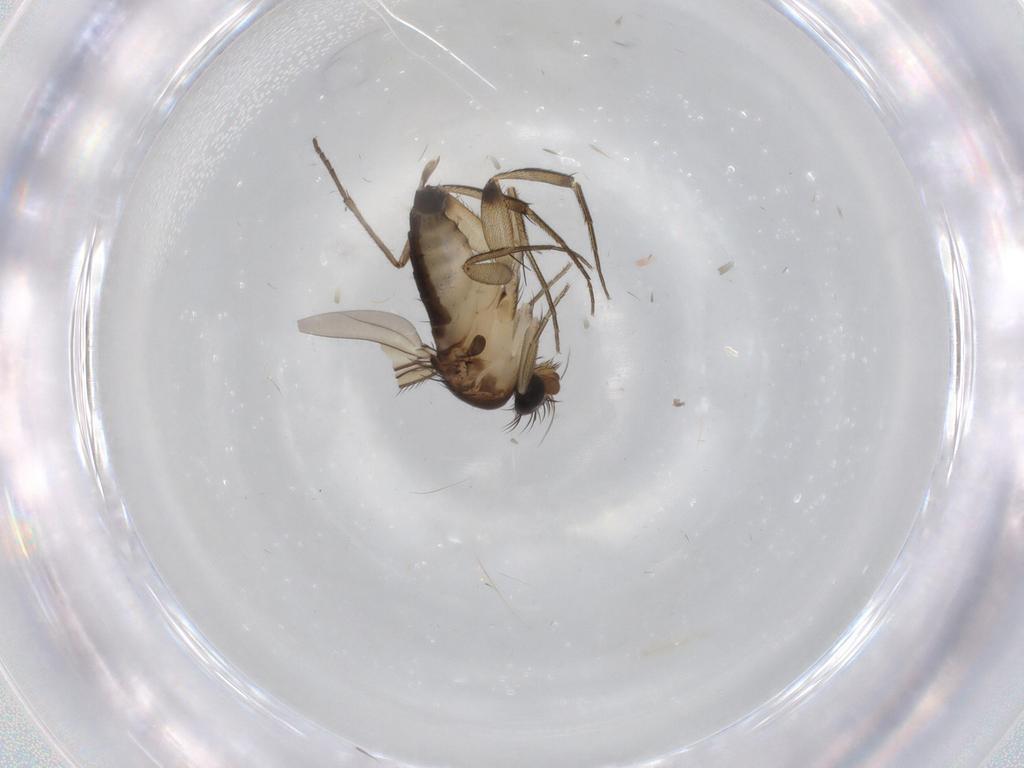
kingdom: Animalia
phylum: Arthropoda
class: Insecta
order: Diptera
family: Sciaridae
